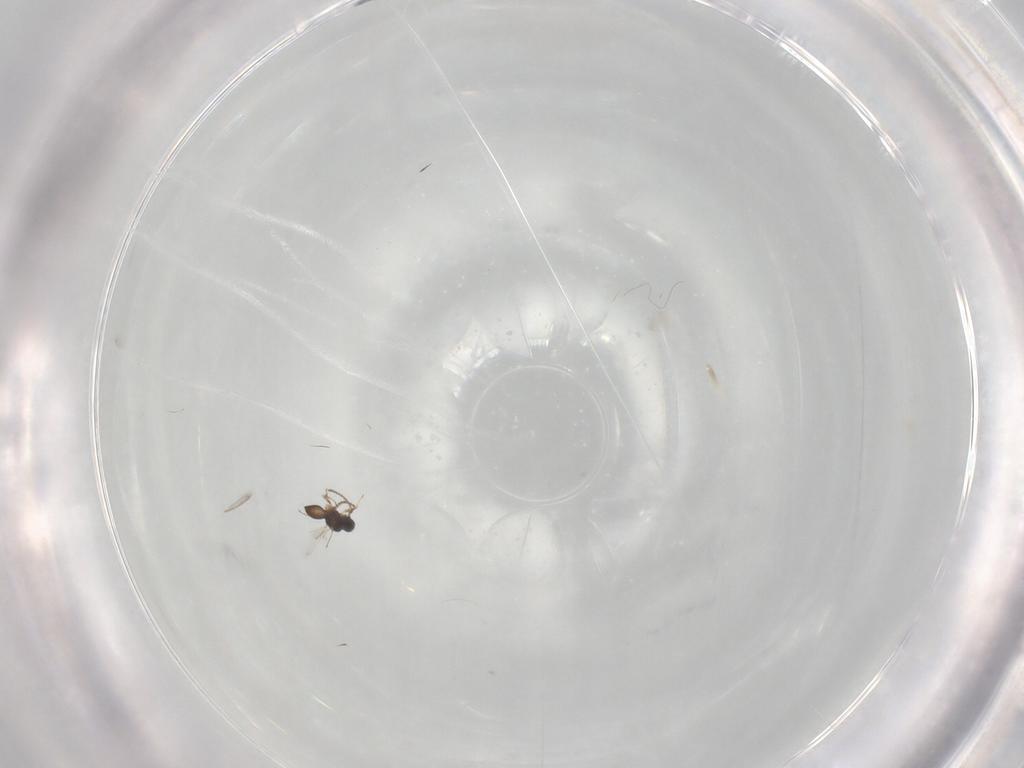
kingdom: Animalia
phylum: Arthropoda
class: Insecta
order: Hymenoptera
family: Scelionidae
